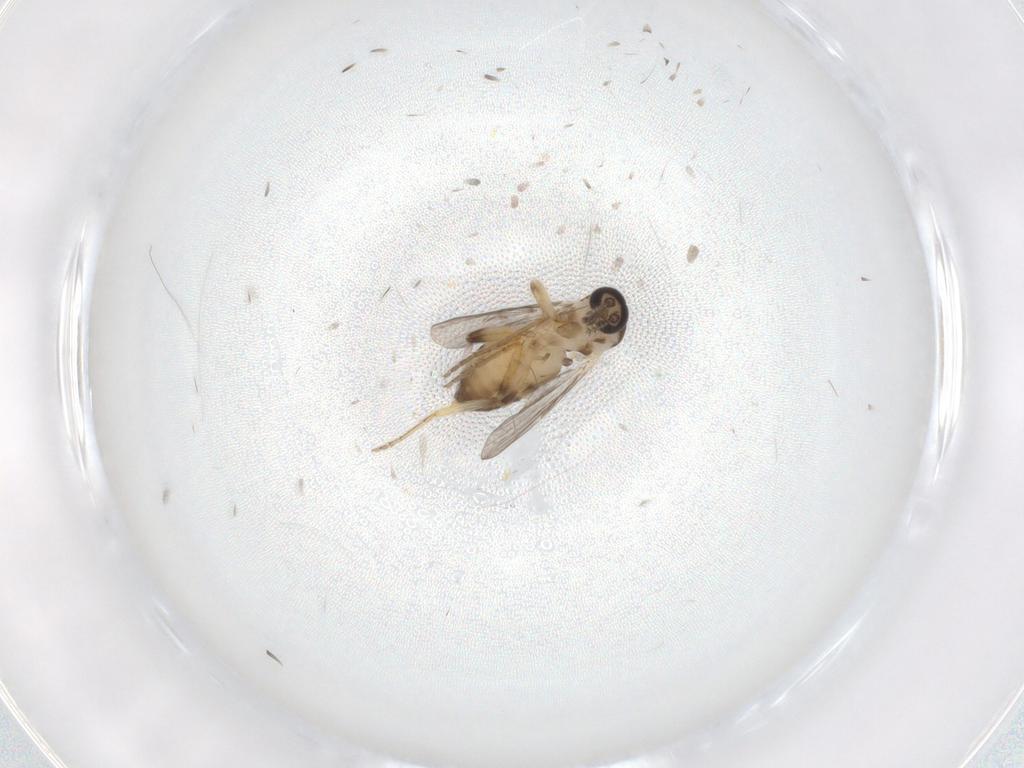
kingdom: Animalia
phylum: Arthropoda
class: Insecta
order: Diptera
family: Ceratopogonidae
